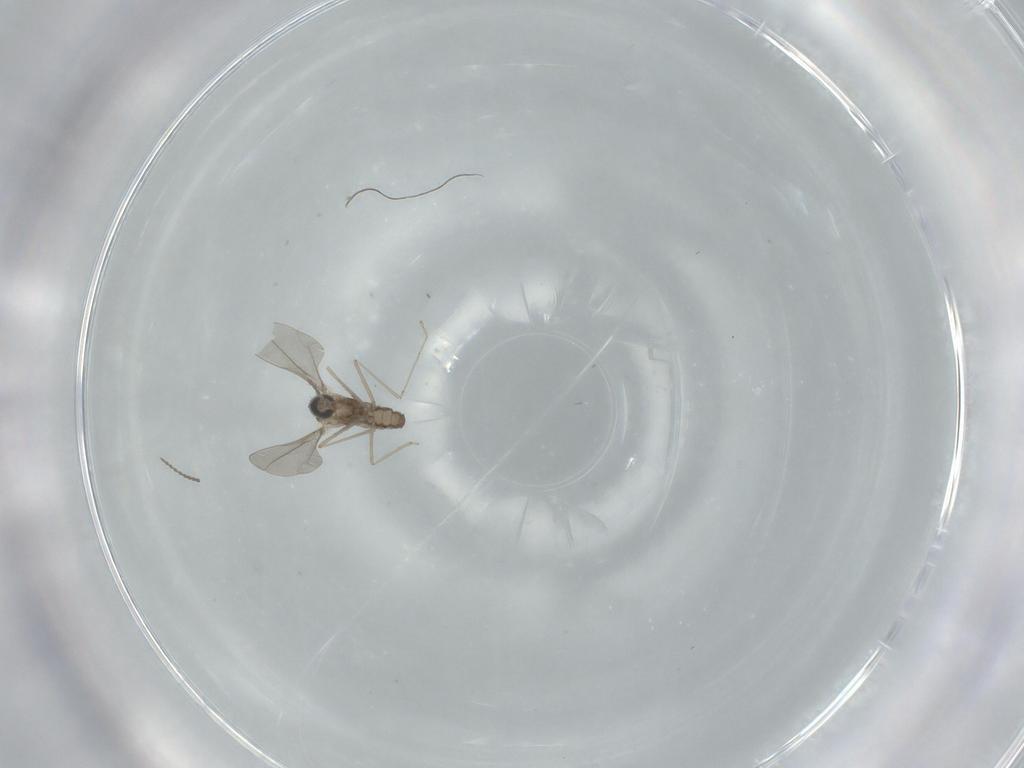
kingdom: Animalia
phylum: Arthropoda
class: Insecta
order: Diptera
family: Cecidomyiidae
